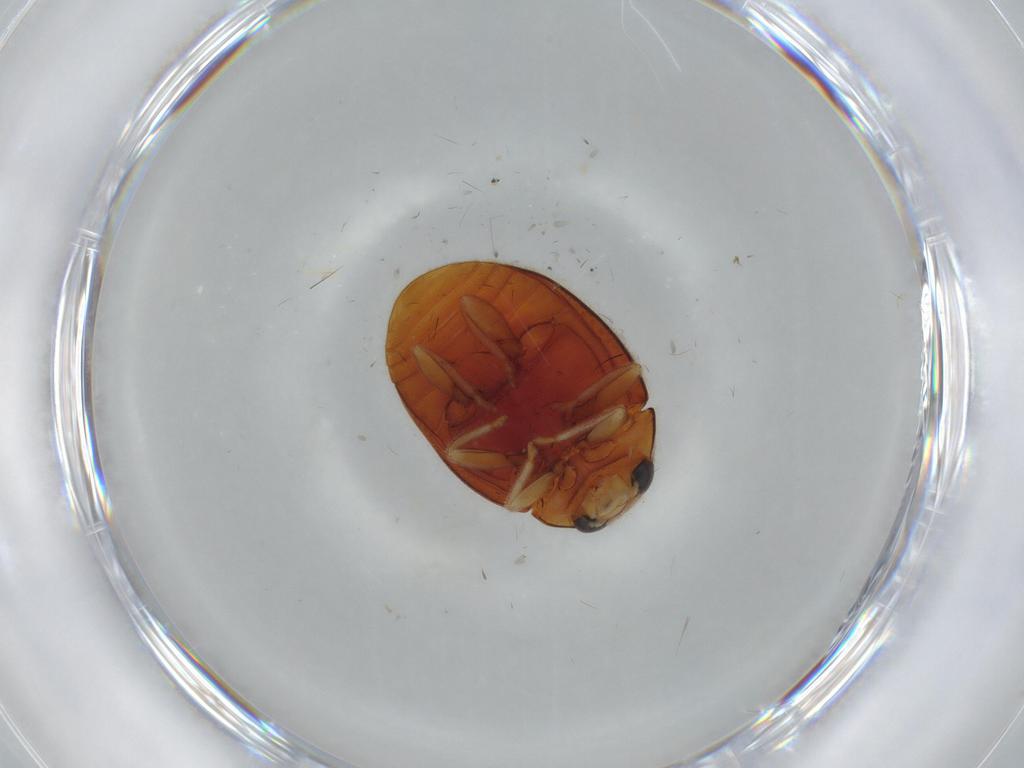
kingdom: Animalia
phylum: Arthropoda
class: Insecta
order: Coleoptera
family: Coccinellidae
